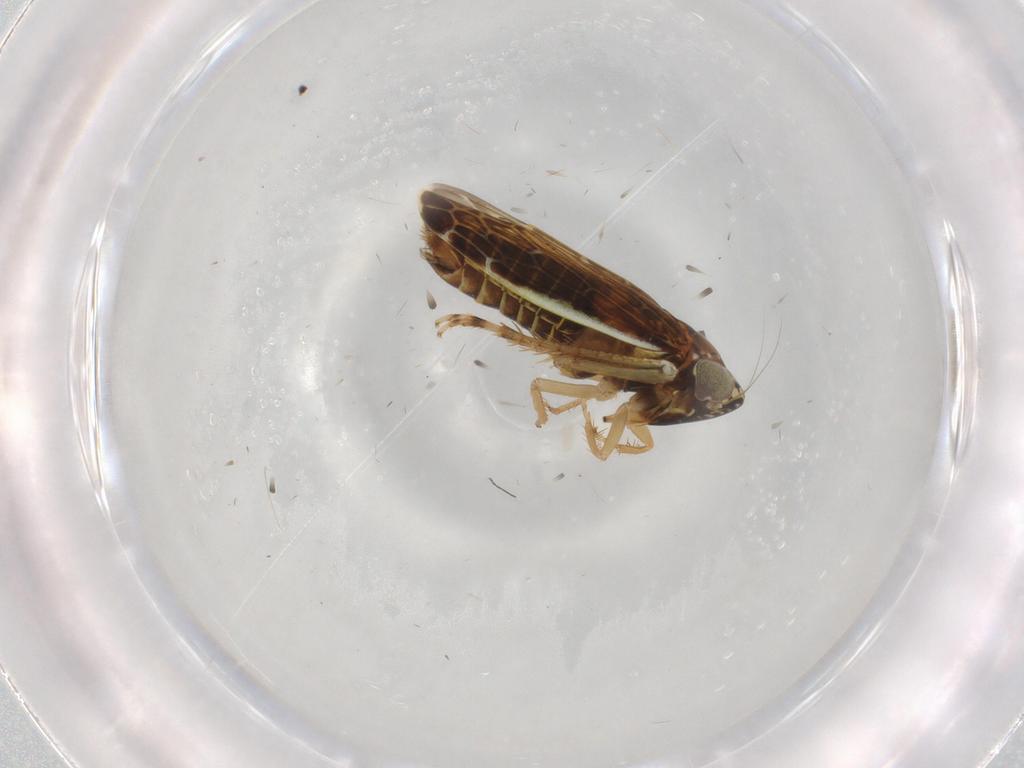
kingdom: Animalia
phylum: Arthropoda
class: Insecta
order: Hemiptera
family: Cicadellidae
